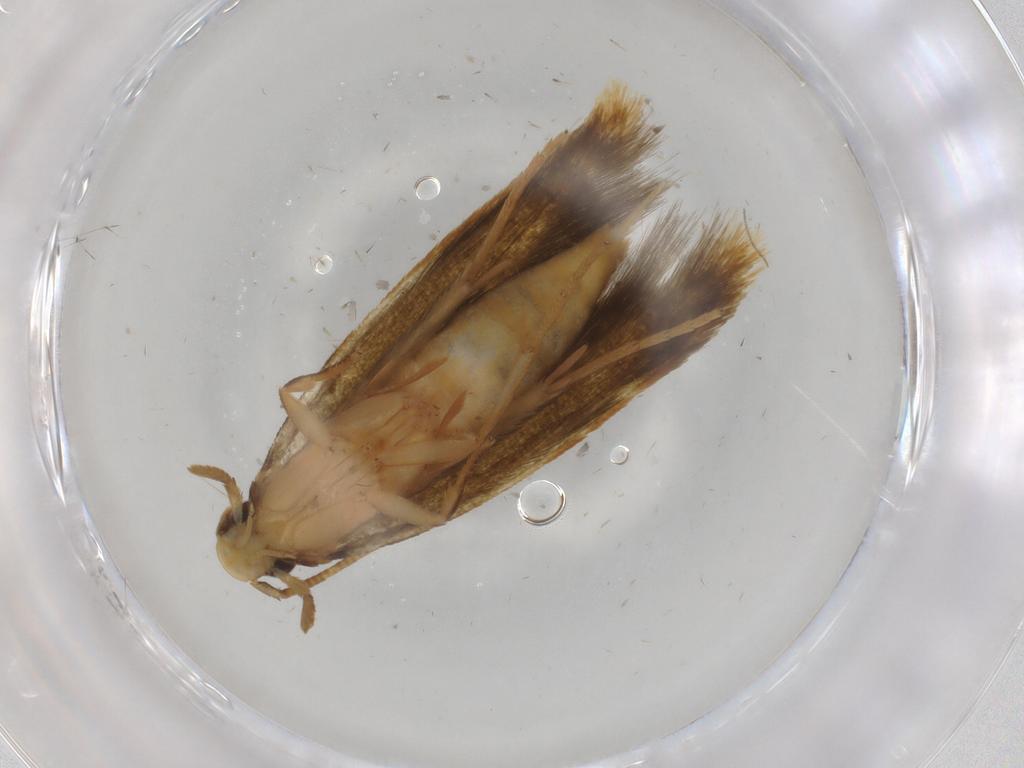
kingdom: Animalia
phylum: Arthropoda
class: Insecta
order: Lepidoptera
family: Tineidae
